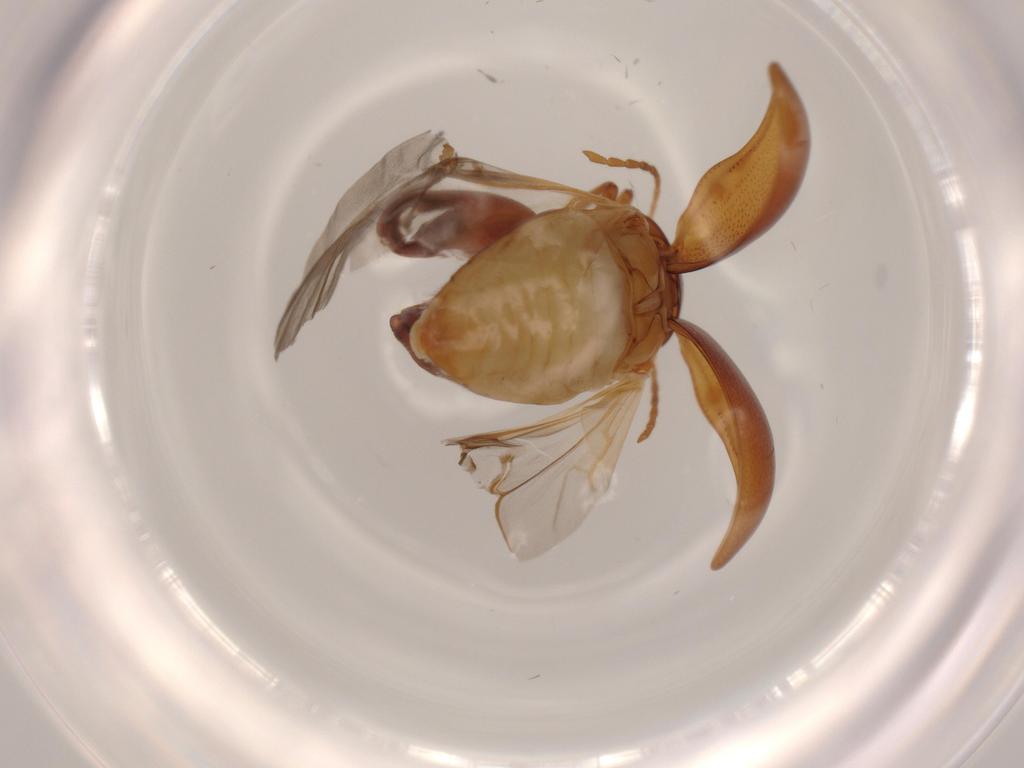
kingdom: Animalia
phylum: Arthropoda
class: Insecta
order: Coleoptera
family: Chrysomelidae
